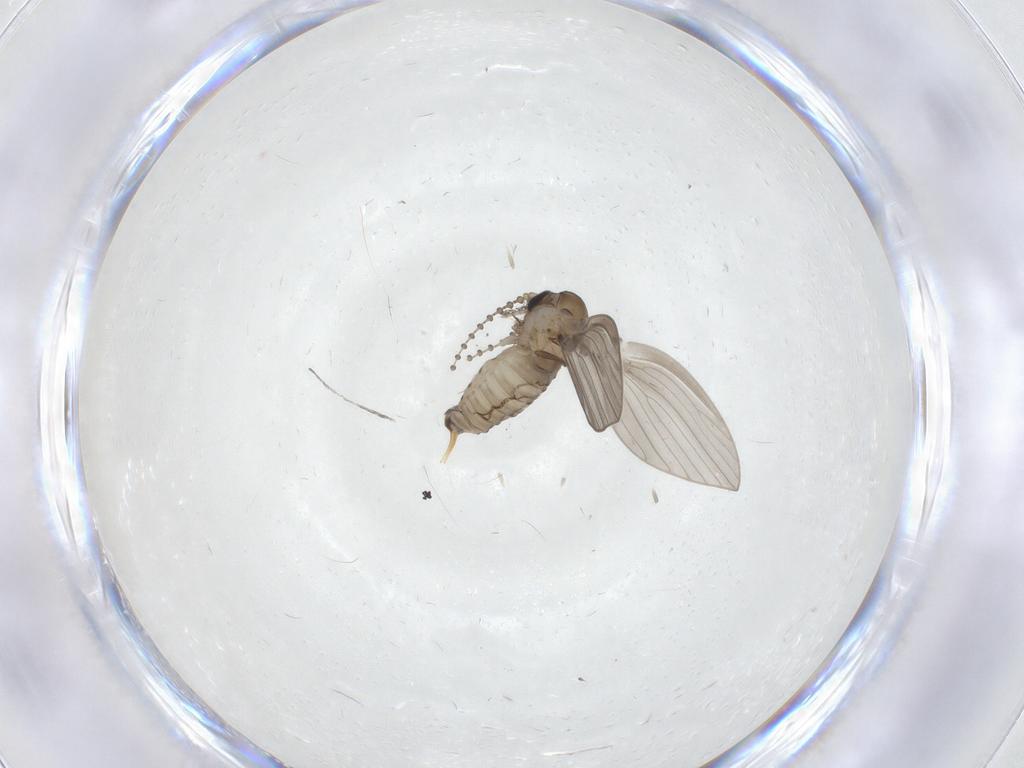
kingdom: Animalia
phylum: Arthropoda
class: Insecta
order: Diptera
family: Psychodidae
